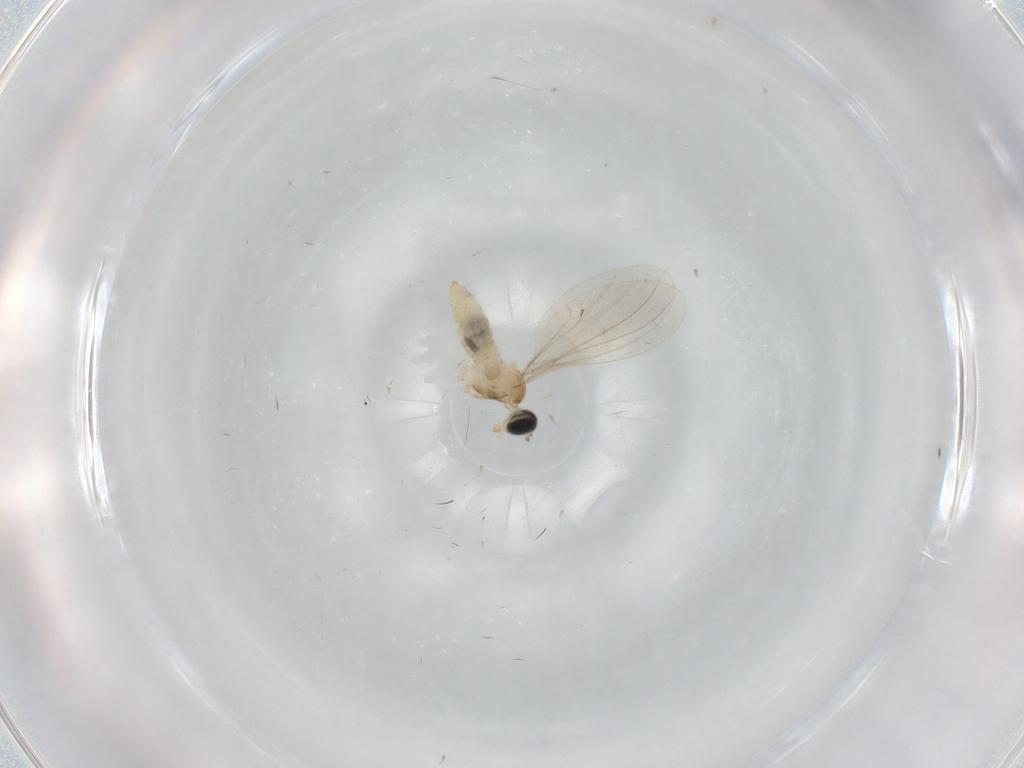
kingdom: Animalia
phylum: Arthropoda
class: Insecta
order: Diptera
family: Cecidomyiidae
